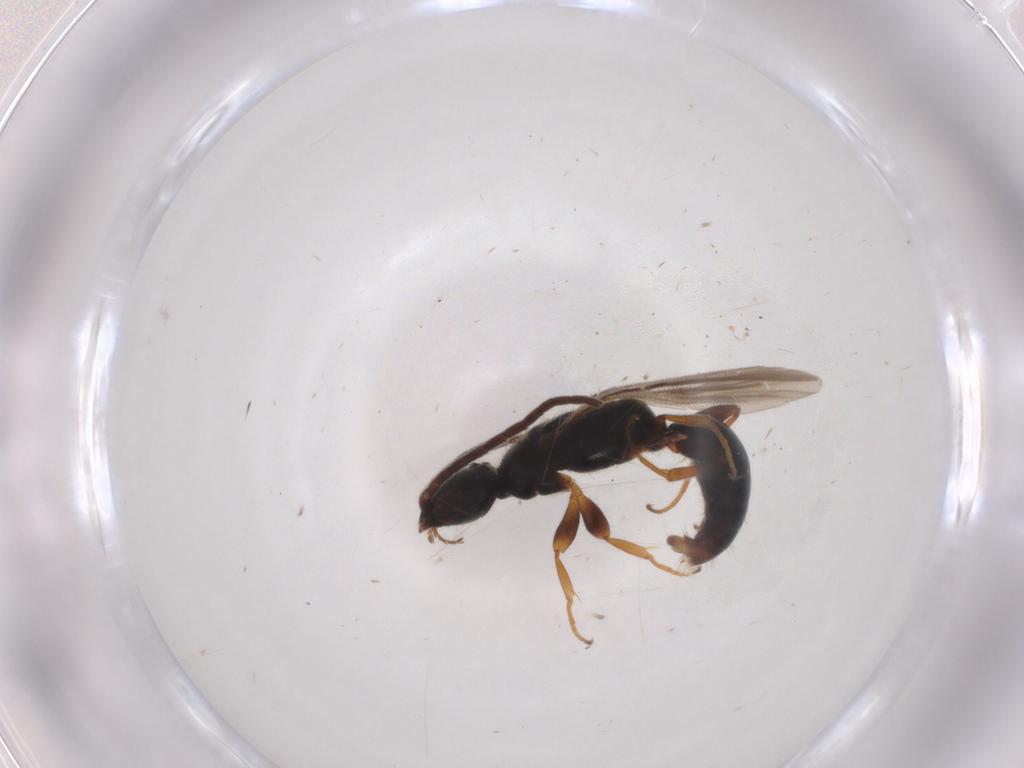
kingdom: Animalia
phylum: Arthropoda
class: Insecta
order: Hymenoptera
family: Bethylidae
